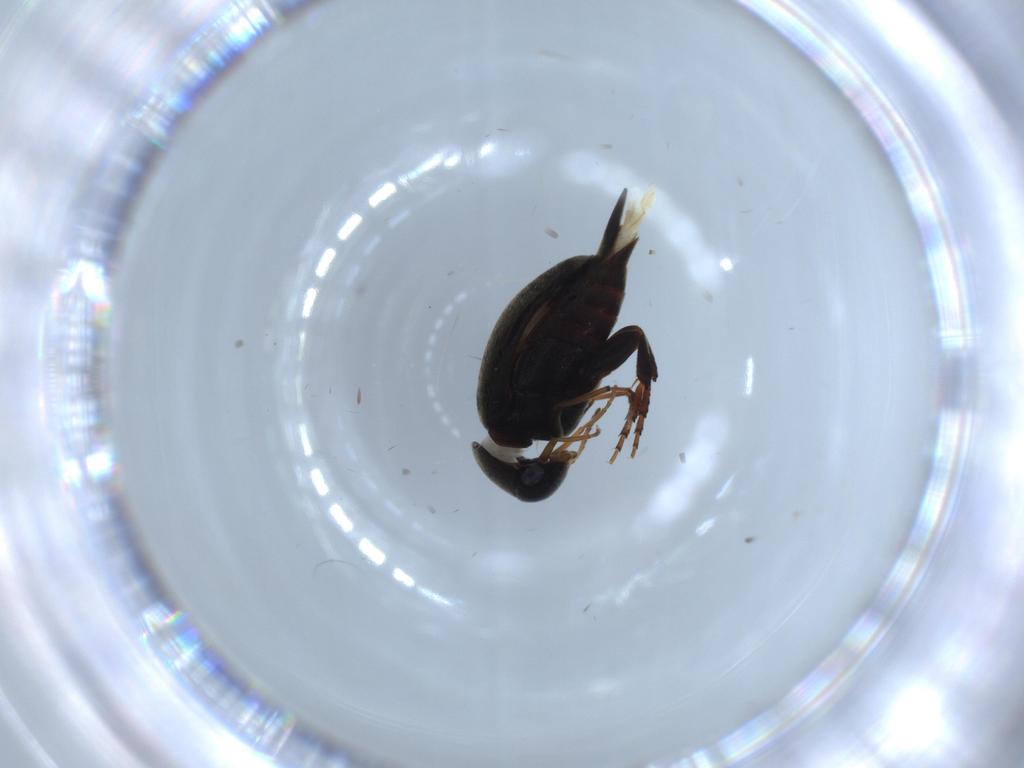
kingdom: Animalia
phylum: Arthropoda
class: Insecta
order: Coleoptera
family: Mordellidae
